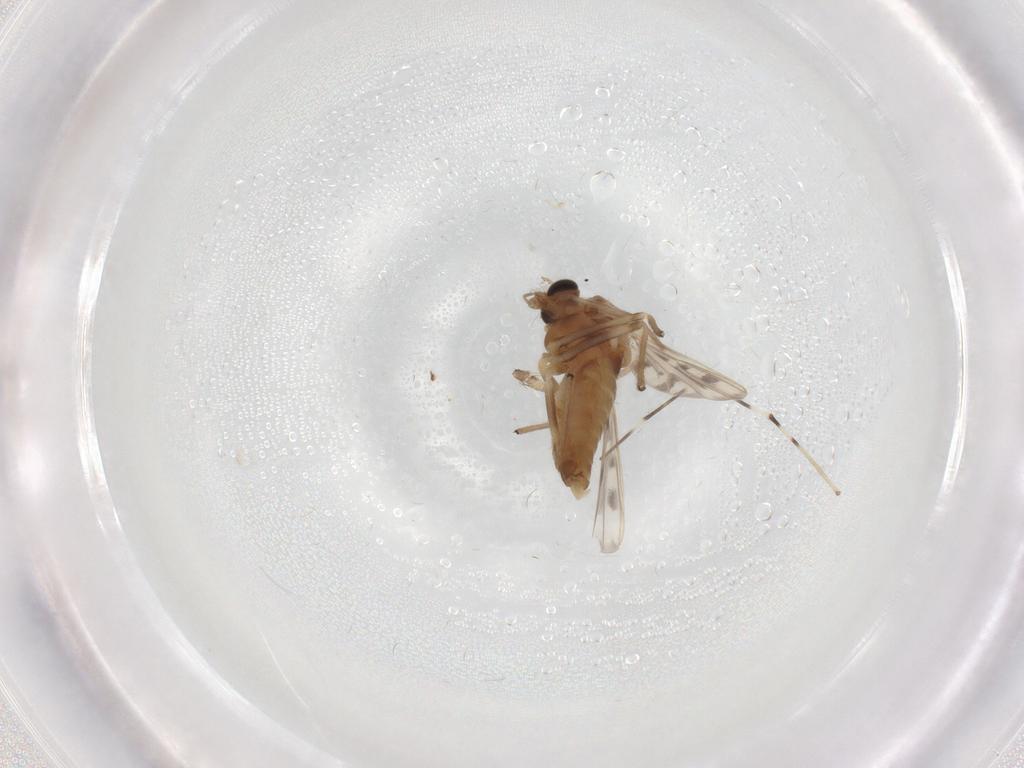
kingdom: Animalia
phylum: Arthropoda
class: Insecta
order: Diptera
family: Chironomidae
